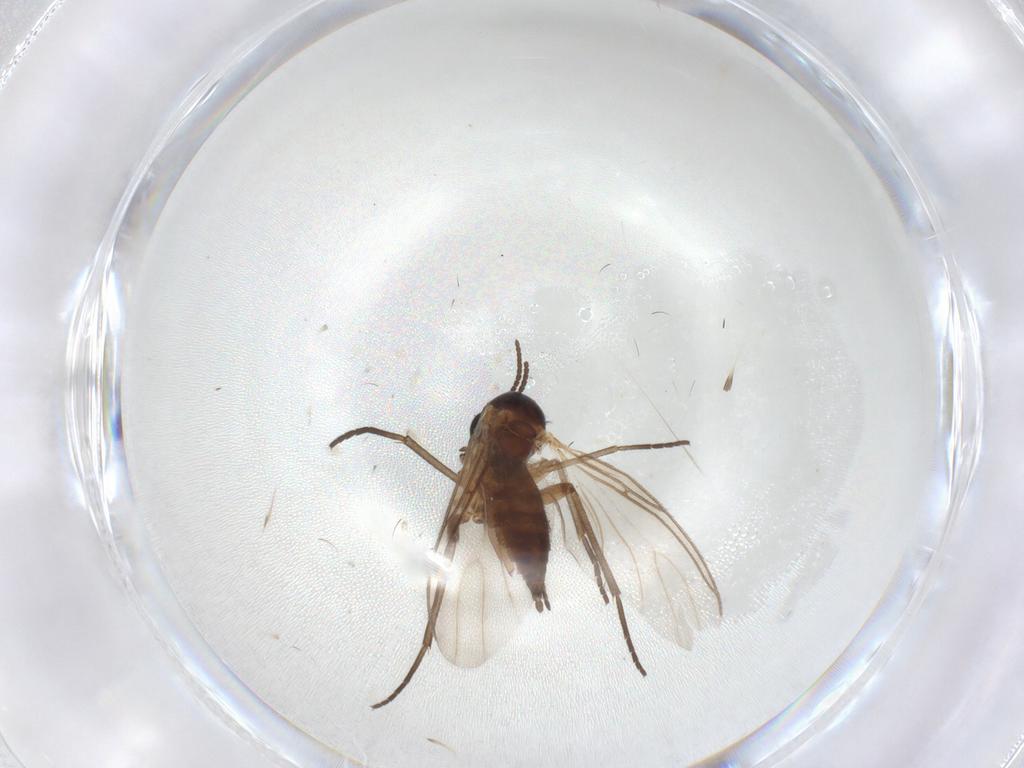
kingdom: Animalia
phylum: Arthropoda
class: Insecta
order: Diptera
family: Sciaridae
